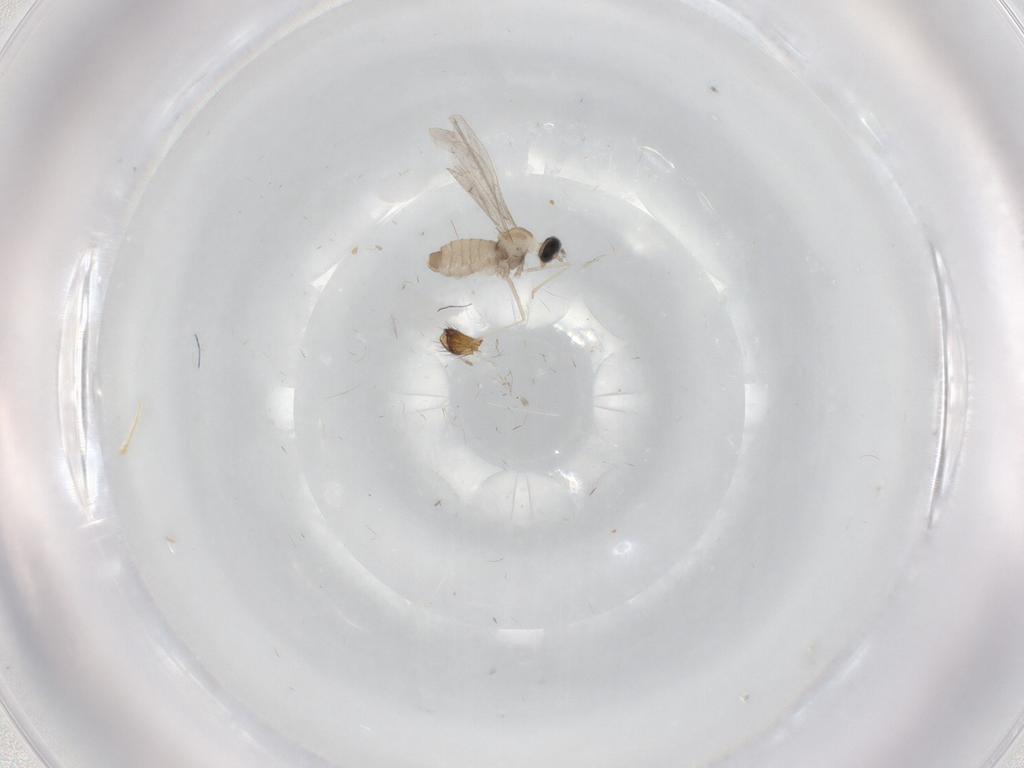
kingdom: Animalia
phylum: Arthropoda
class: Insecta
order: Diptera
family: Cecidomyiidae
